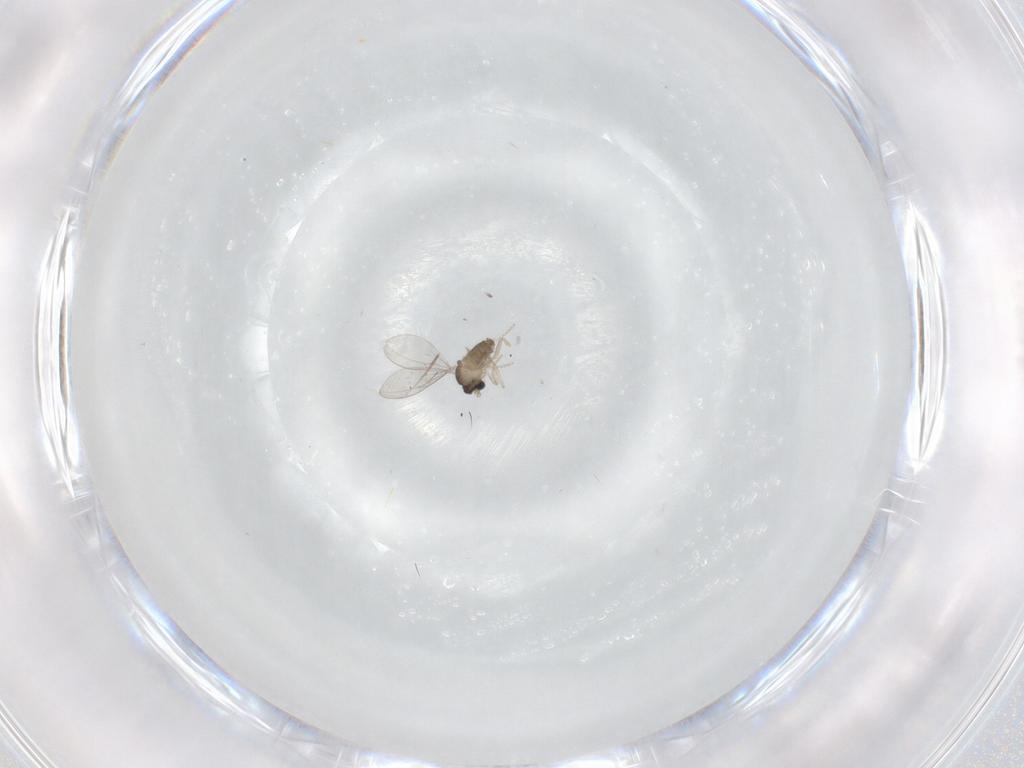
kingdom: Animalia
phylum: Arthropoda
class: Insecta
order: Diptera
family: Cecidomyiidae
